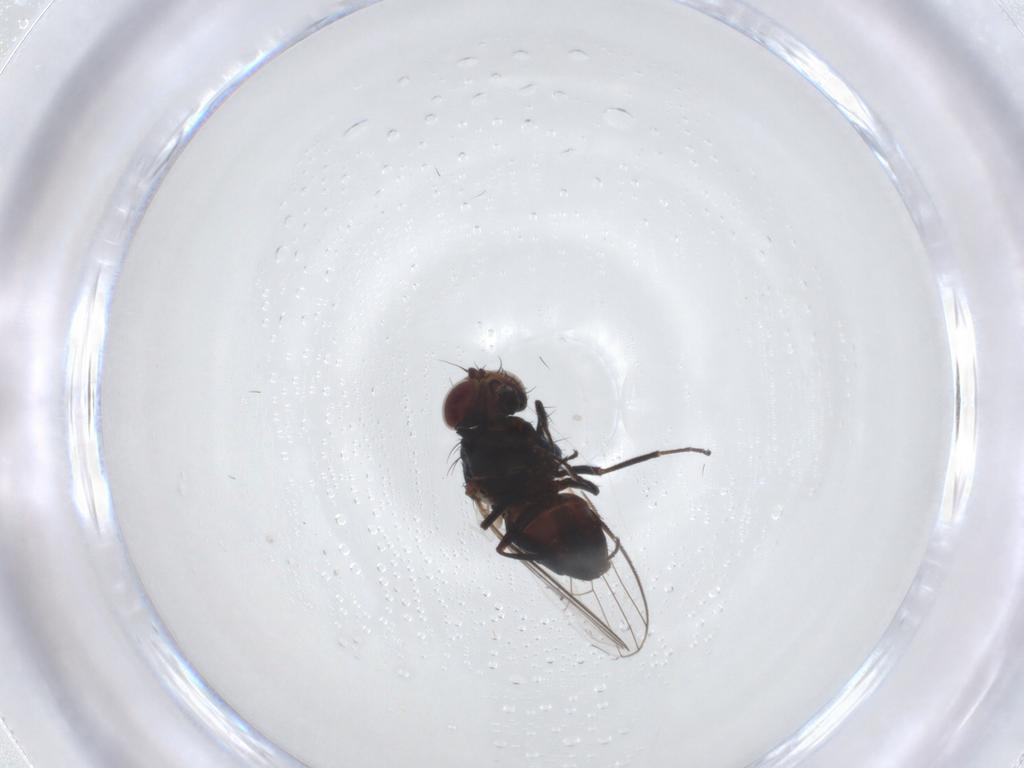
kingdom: Animalia
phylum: Arthropoda
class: Insecta
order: Diptera
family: Carnidae
